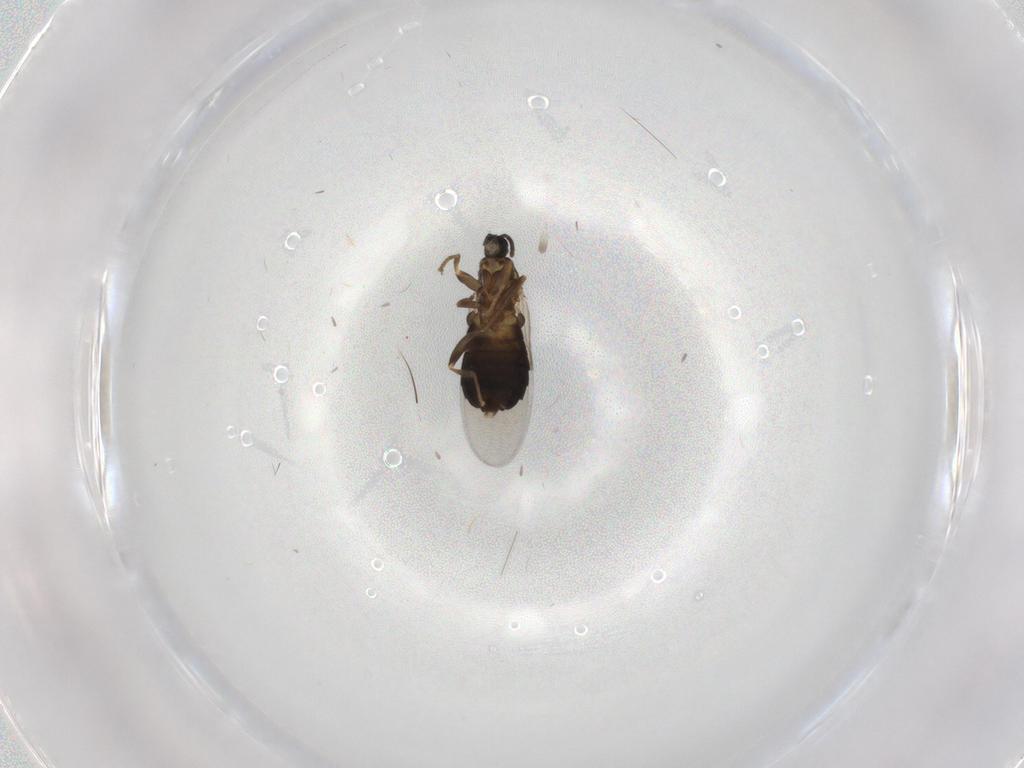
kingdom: Animalia
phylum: Arthropoda
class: Insecta
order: Diptera
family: Scatopsidae
